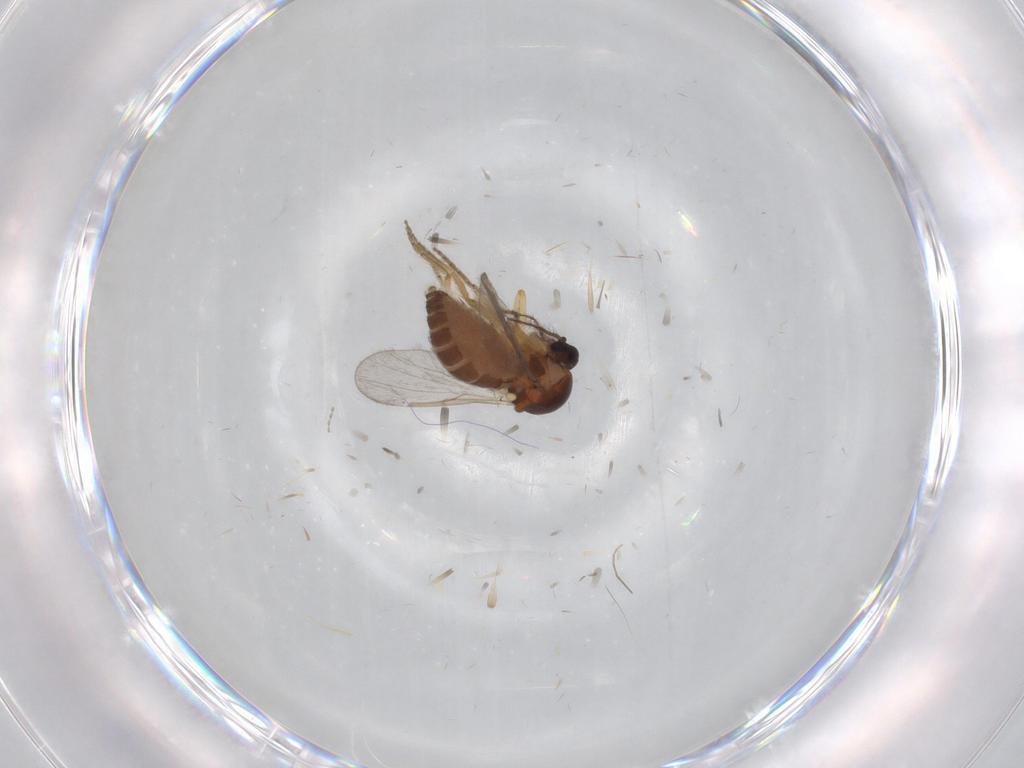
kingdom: Animalia
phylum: Arthropoda
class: Insecta
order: Diptera
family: Ceratopogonidae
